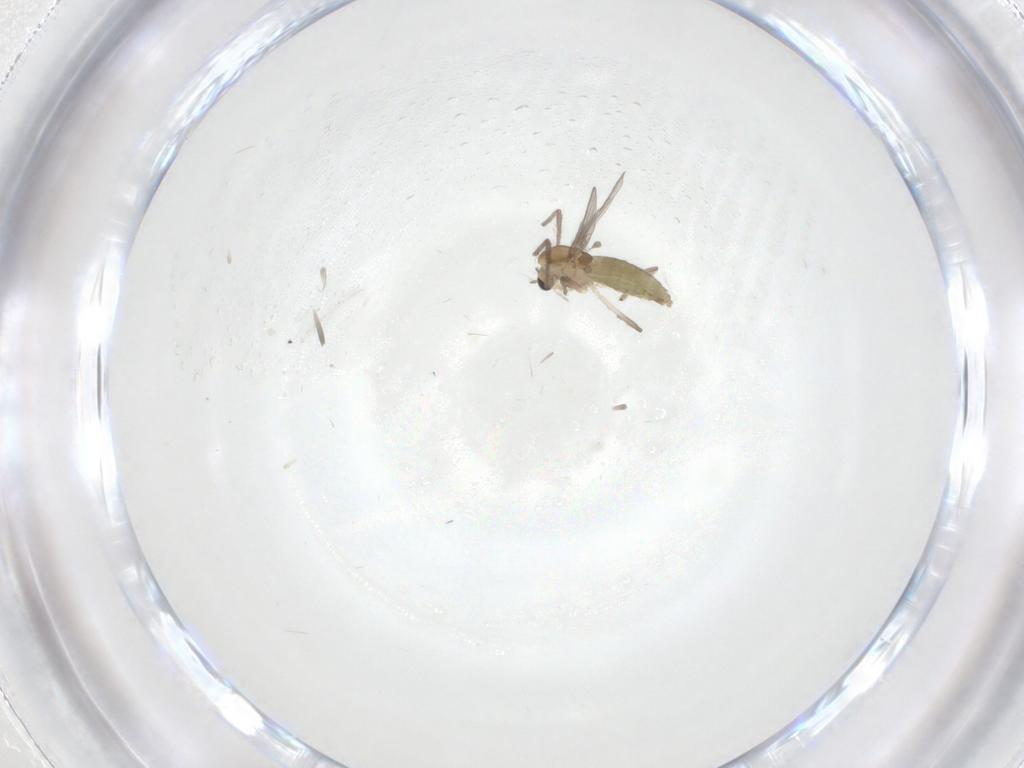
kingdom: Animalia
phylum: Arthropoda
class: Insecta
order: Diptera
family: Chironomidae
